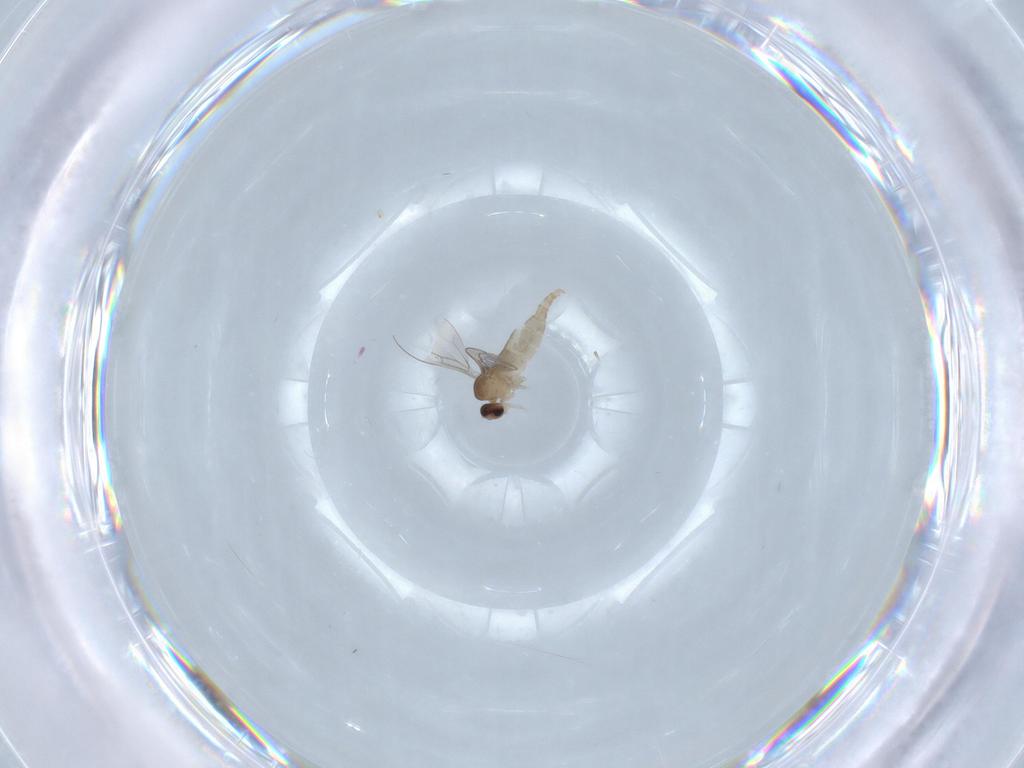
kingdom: Animalia
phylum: Arthropoda
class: Insecta
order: Diptera
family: Cecidomyiidae
